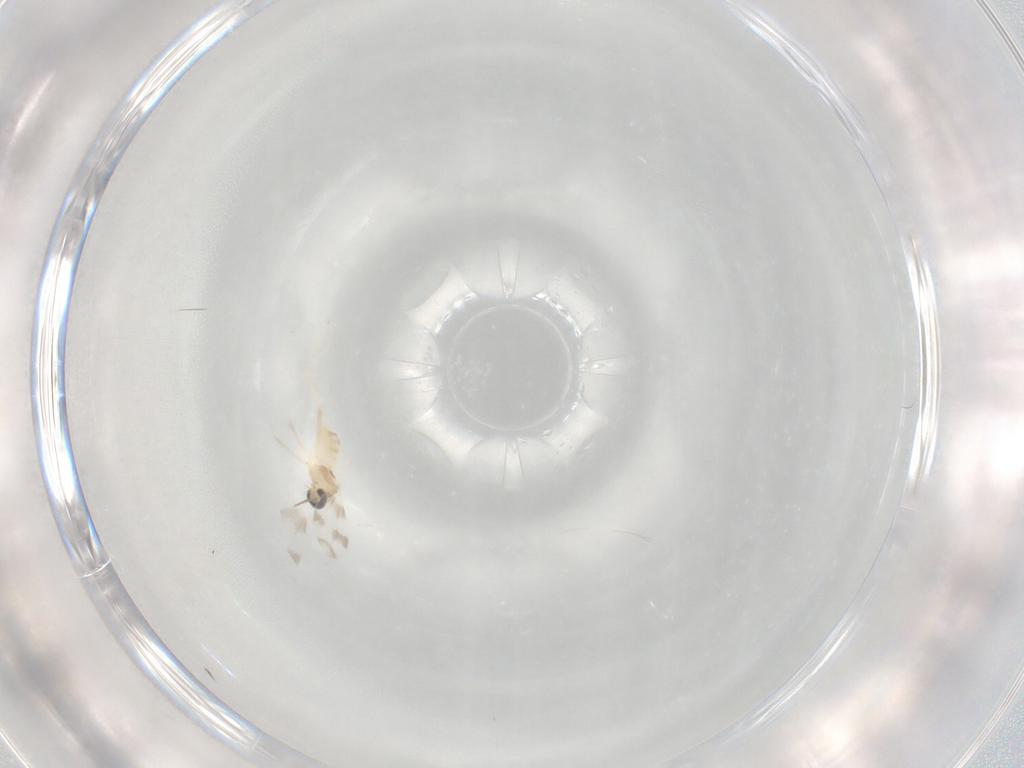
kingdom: Animalia
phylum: Arthropoda
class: Insecta
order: Diptera
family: Cecidomyiidae
